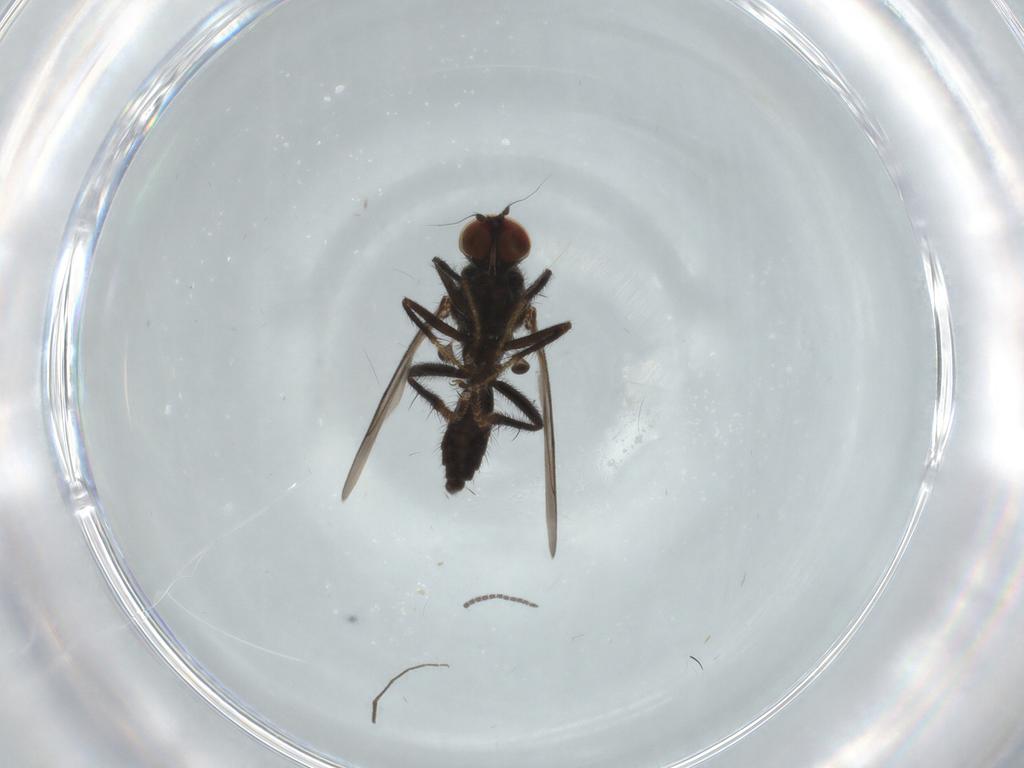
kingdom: Animalia
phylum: Arthropoda
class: Insecta
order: Diptera
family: Hybotidae
